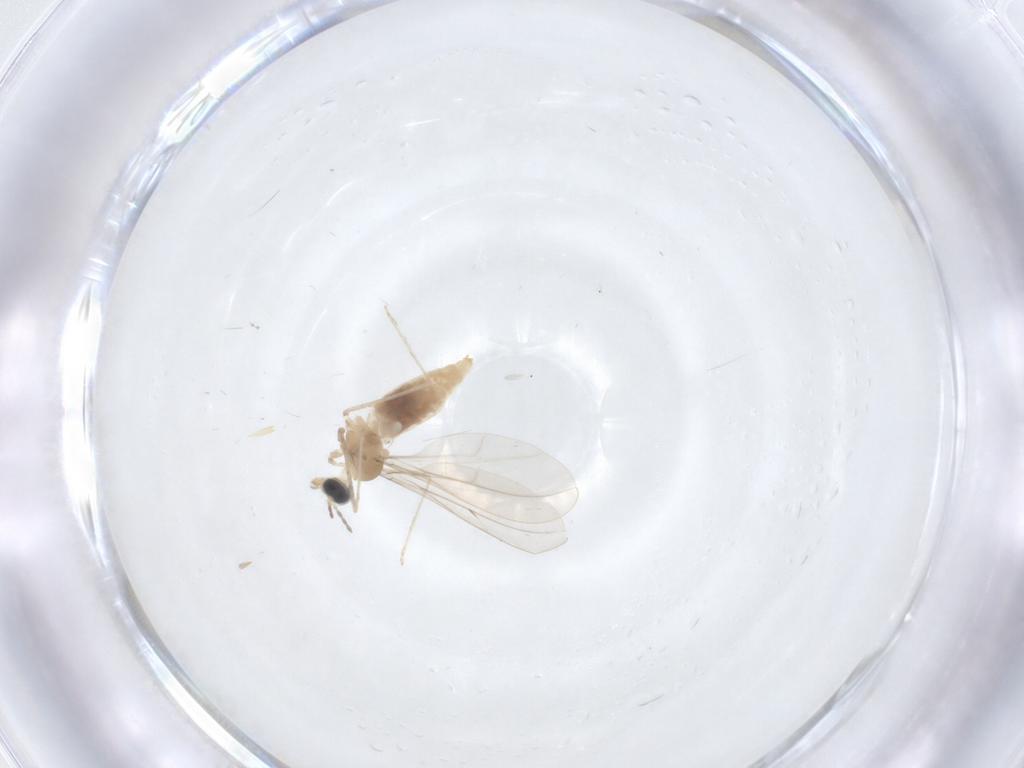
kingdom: Animalia
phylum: Arthropoda
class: Insecta
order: Diptera
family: Cecidomyiidae
